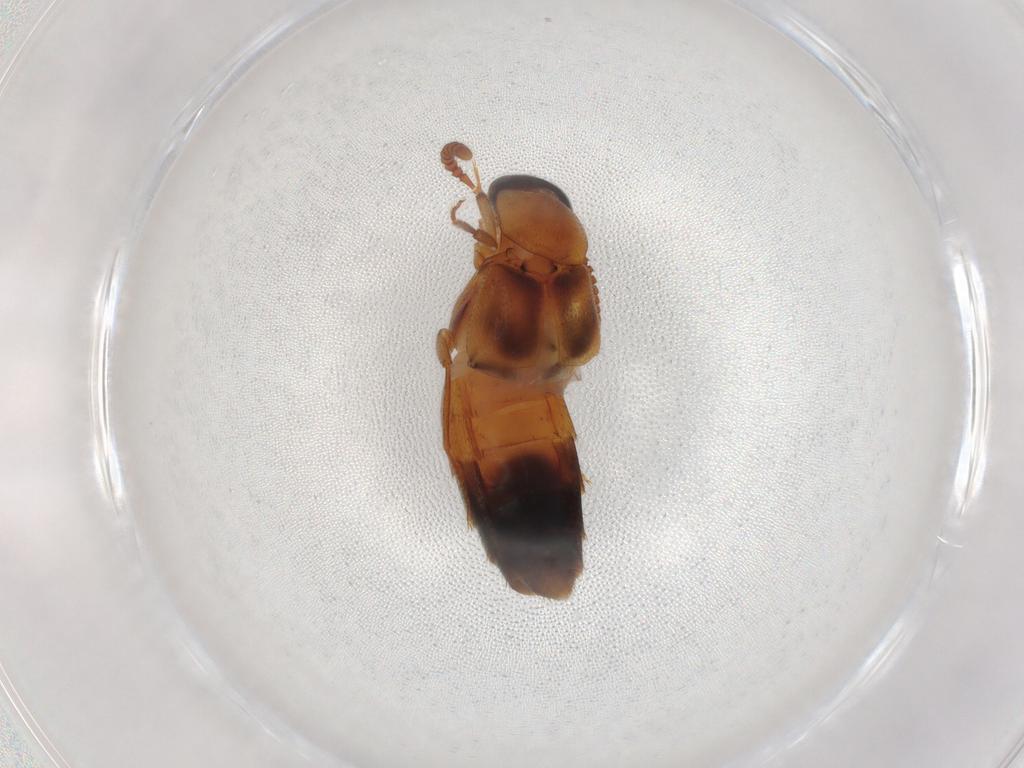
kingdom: Animalia
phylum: Arthropoda
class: Insecta
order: Coleoptera
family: Staphylinidae
